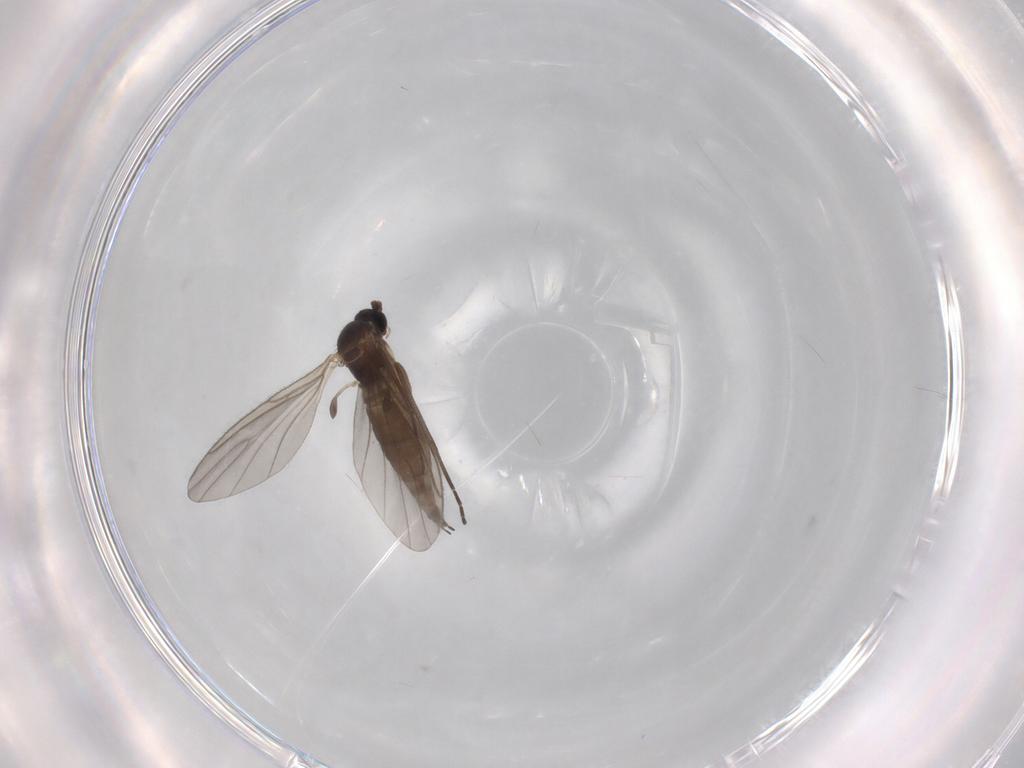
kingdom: Animalia
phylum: Arthropoda
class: Insecta
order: Diptera
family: Sciaridae
